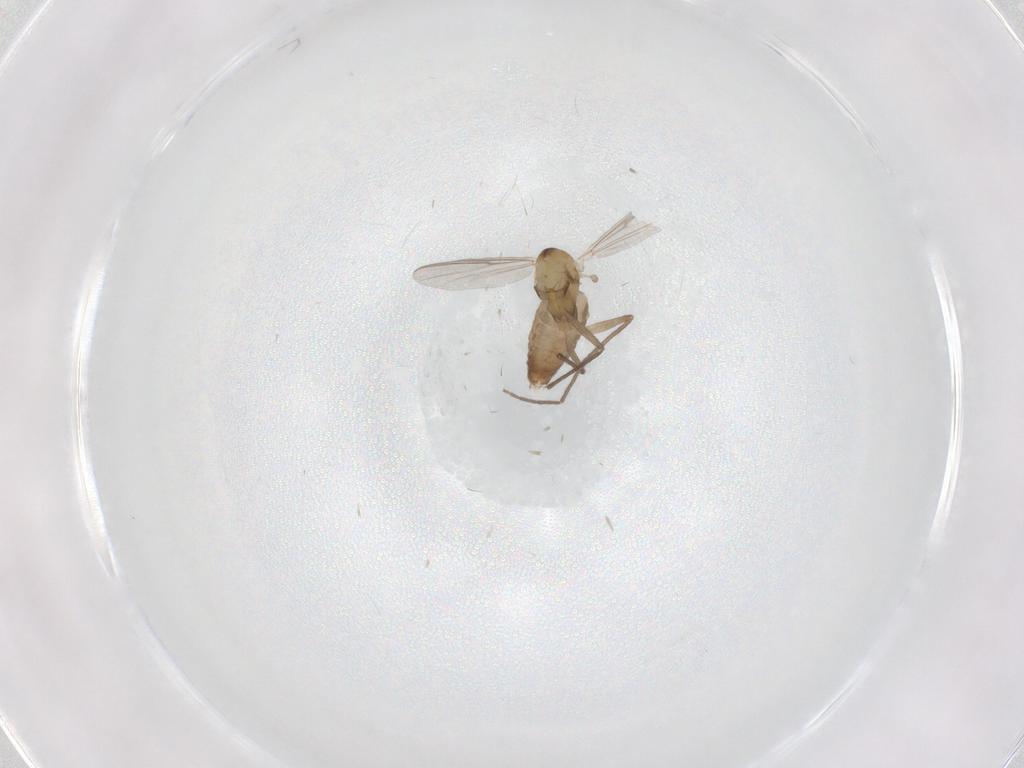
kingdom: Animalia
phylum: Arthropoda
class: Insecta
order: Diptera
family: Chironomidae
